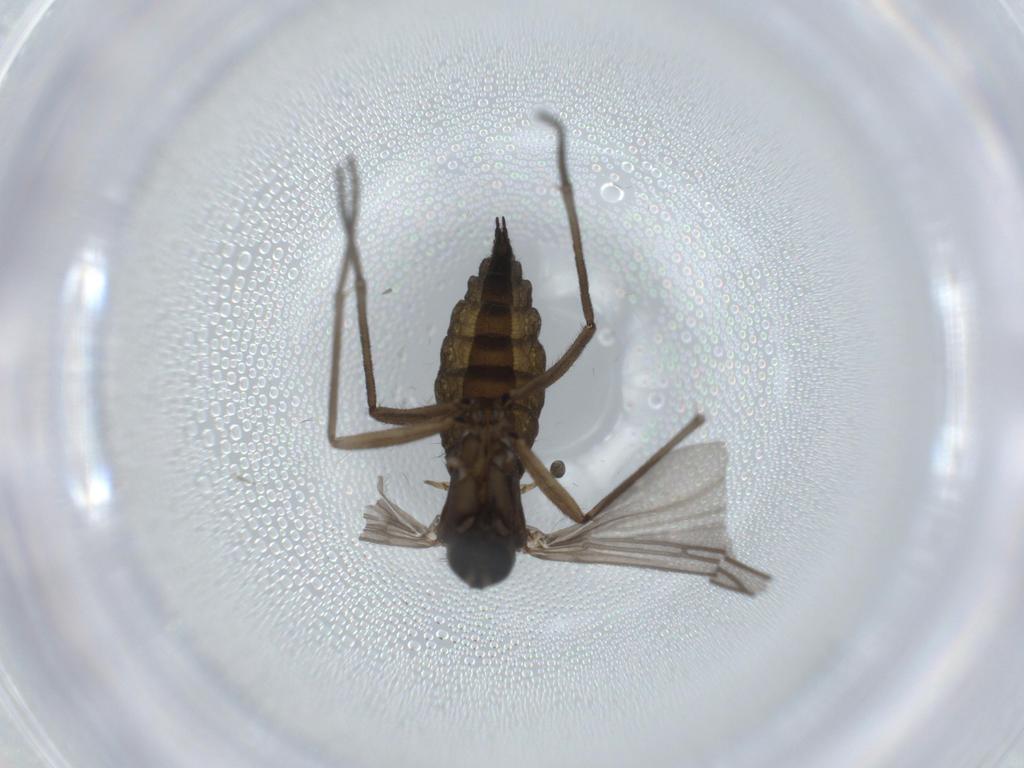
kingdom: Animalia
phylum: Arthropoda
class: Insecta
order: Diptera
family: Sciaridae
